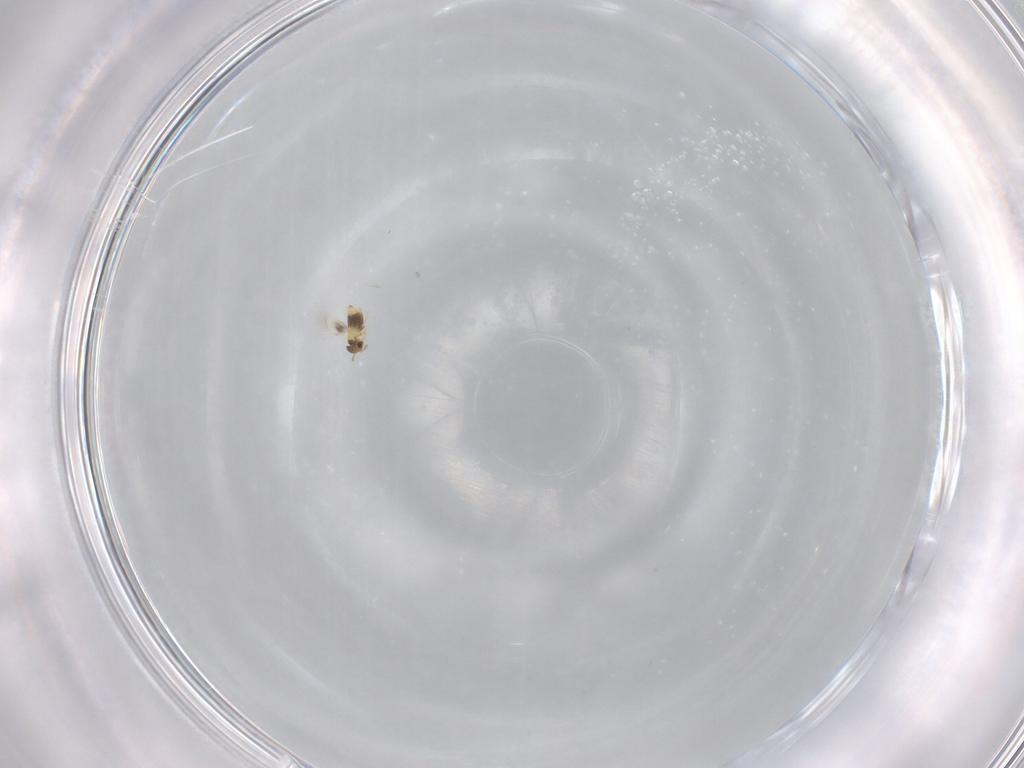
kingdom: Animalia
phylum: Arthropoda
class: Insecta
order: Hymenoptera
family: Signiphoridae
